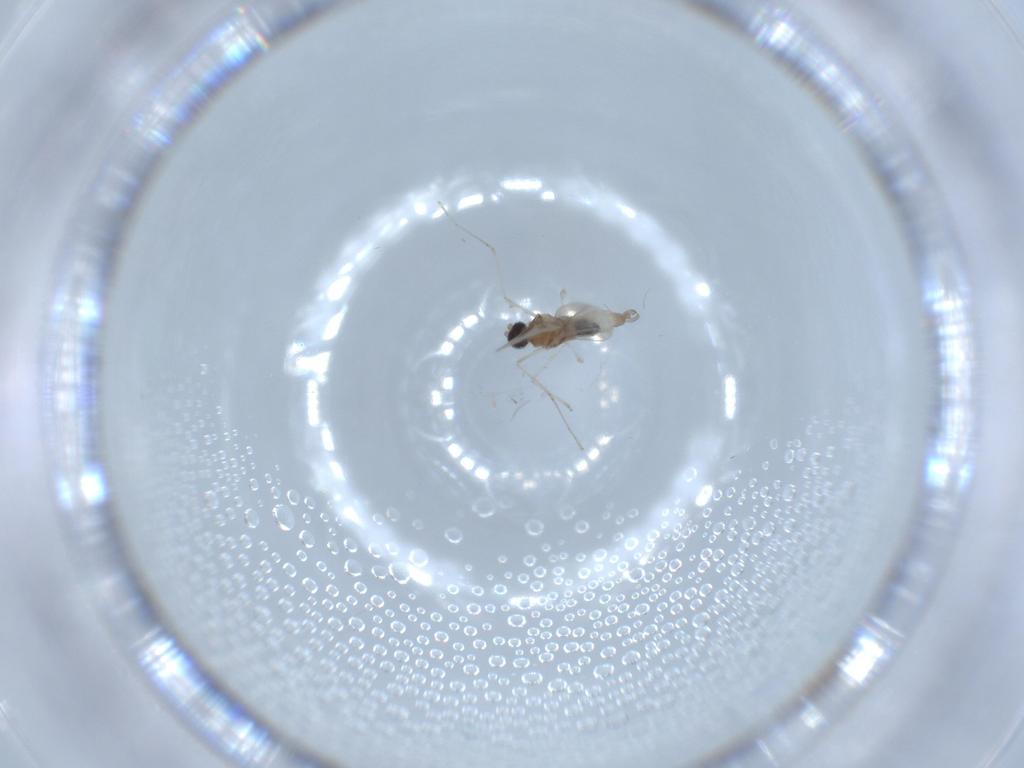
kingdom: Animalia
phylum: Arthropoda
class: Insecta
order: Diptera
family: Cecidomyiidae
